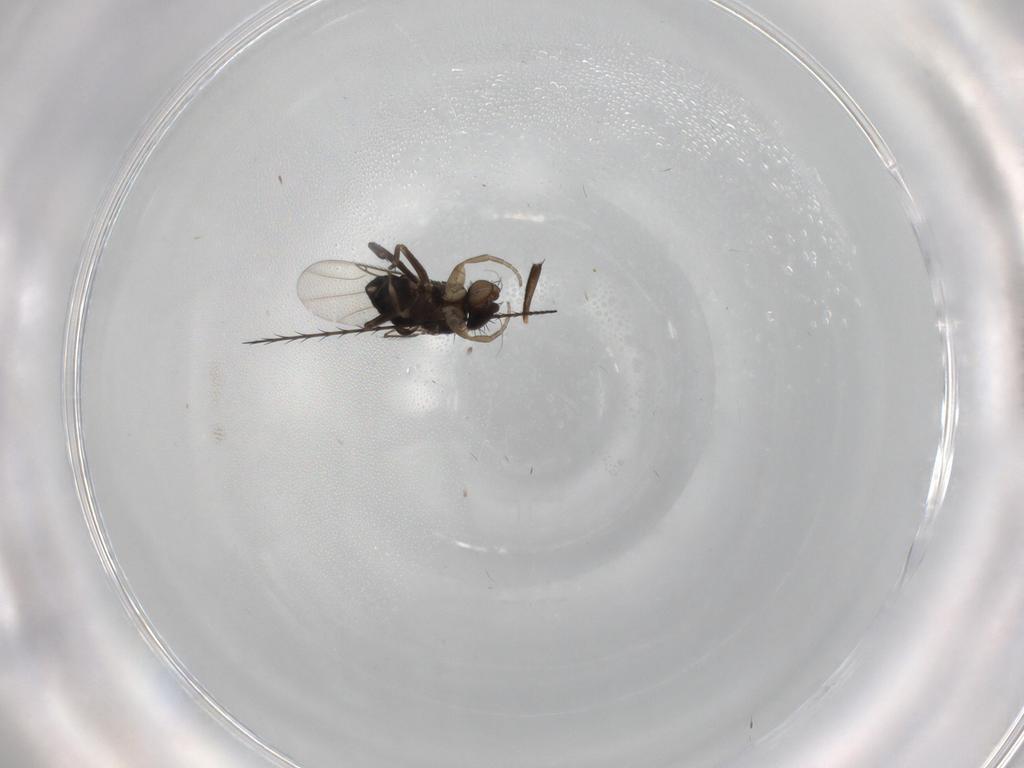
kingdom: Animalia
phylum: Arthropoda
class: Insecta
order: Diptera
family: Phoridae
